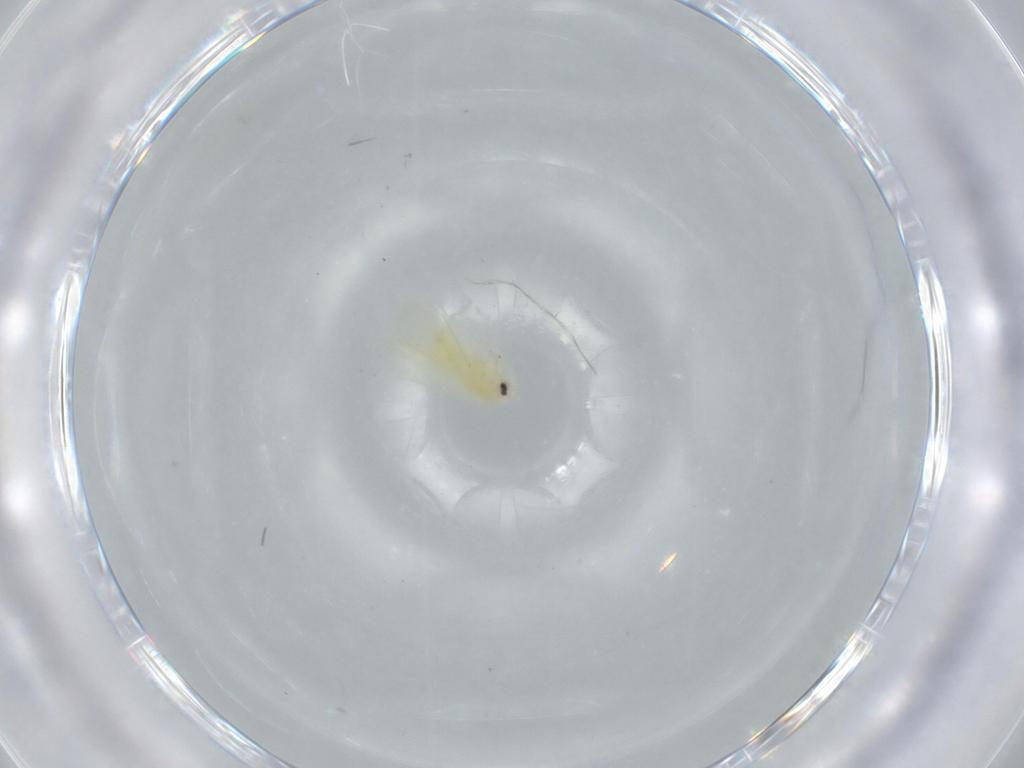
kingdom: Animalia
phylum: Arthropoda
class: Insecta
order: Hemiptera
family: Aleyrodidae
